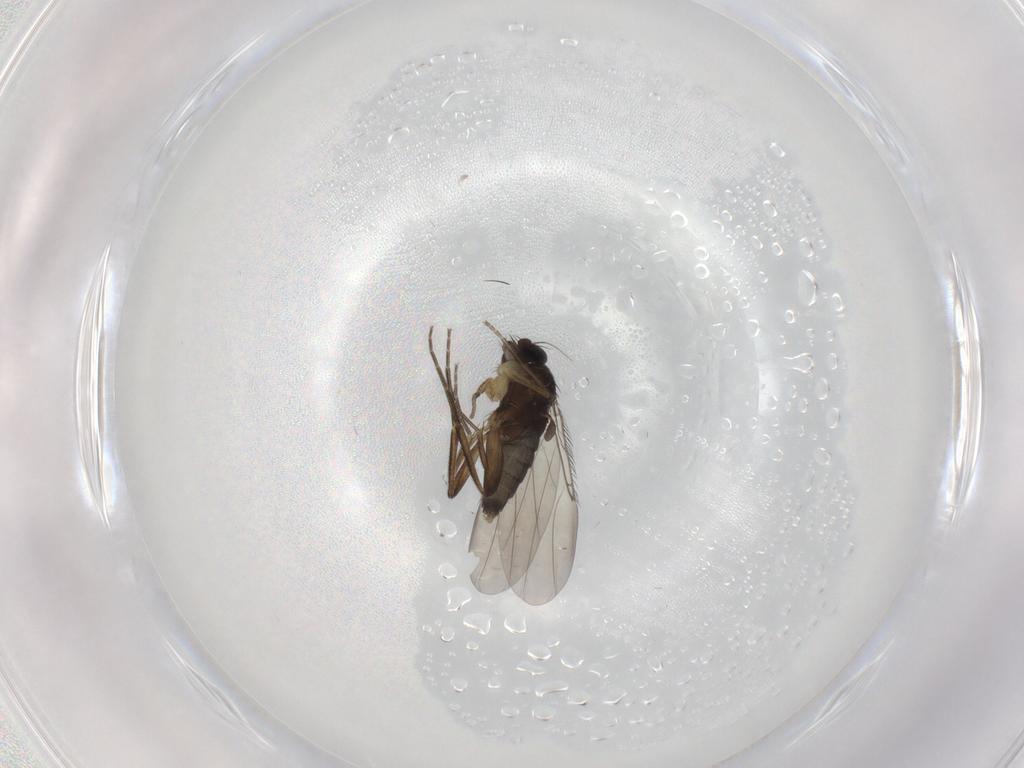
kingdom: Animalia
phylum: Arthropoda
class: Insecta
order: Diptera
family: Phoridae
